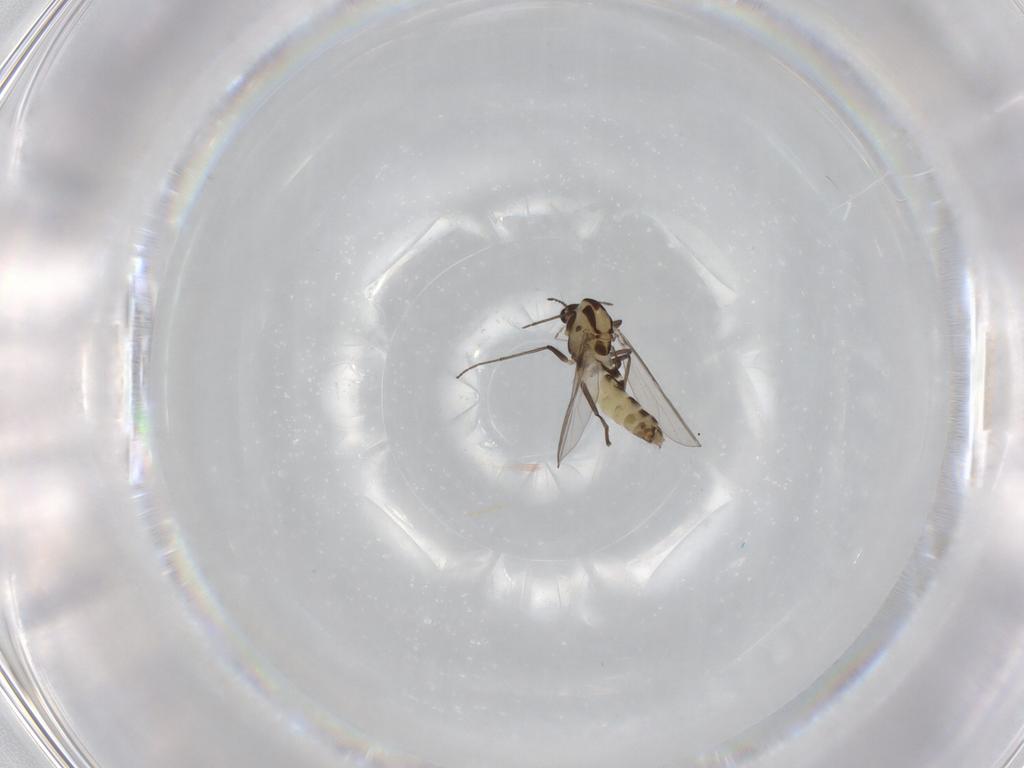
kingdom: Animalia
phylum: Arthropoda
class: Insecta
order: Diptera
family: Chironomidae
